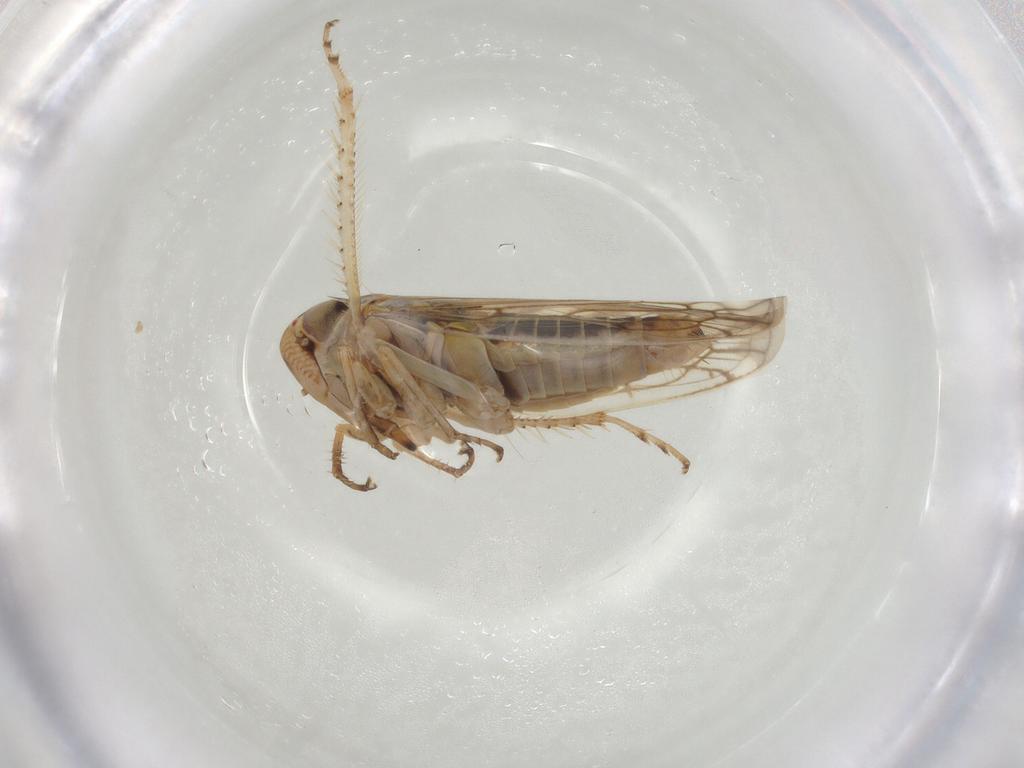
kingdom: Animalia
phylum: Arthropoda
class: Insecta
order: Hemiptera
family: Cicadellidae
